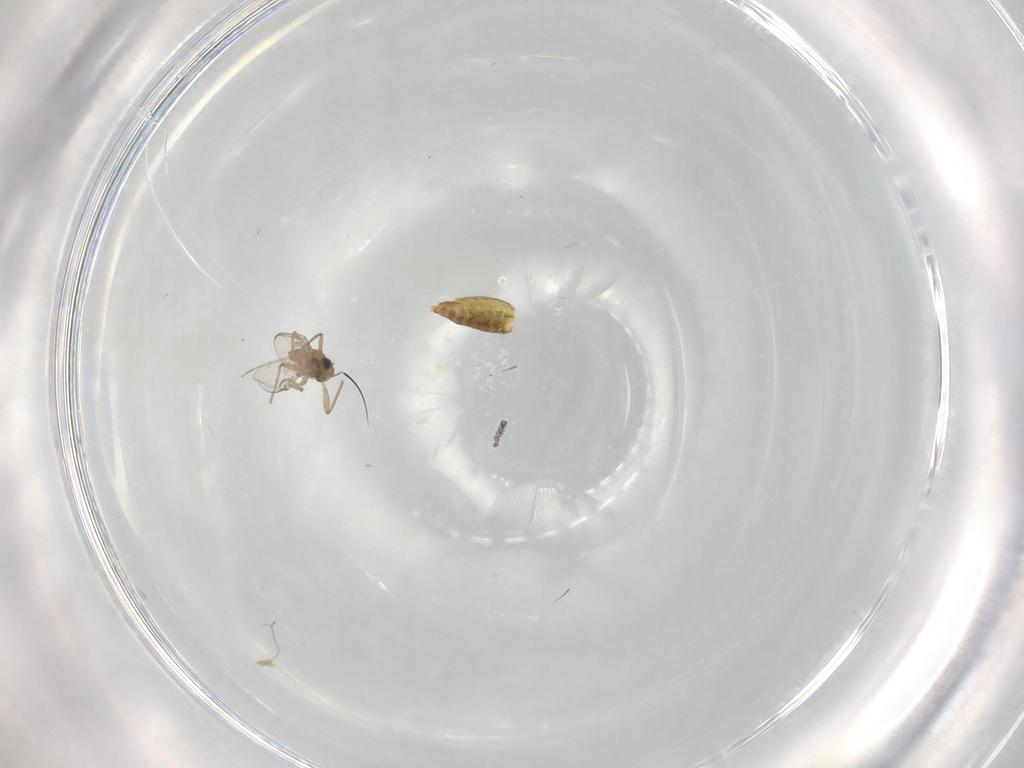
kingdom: Animalia
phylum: Arthropoda
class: Insecta
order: Diptera
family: Chironomidae
